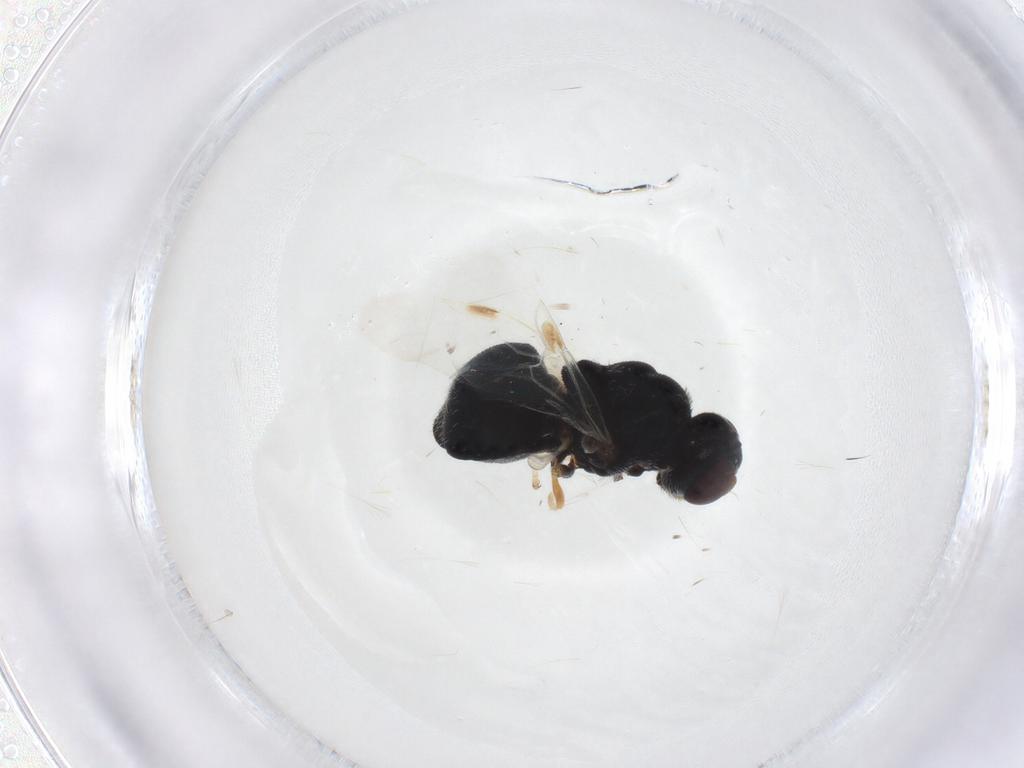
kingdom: Animalia
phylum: Arthropoda
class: Insecta
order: Diptera
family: Stratiomyidae
